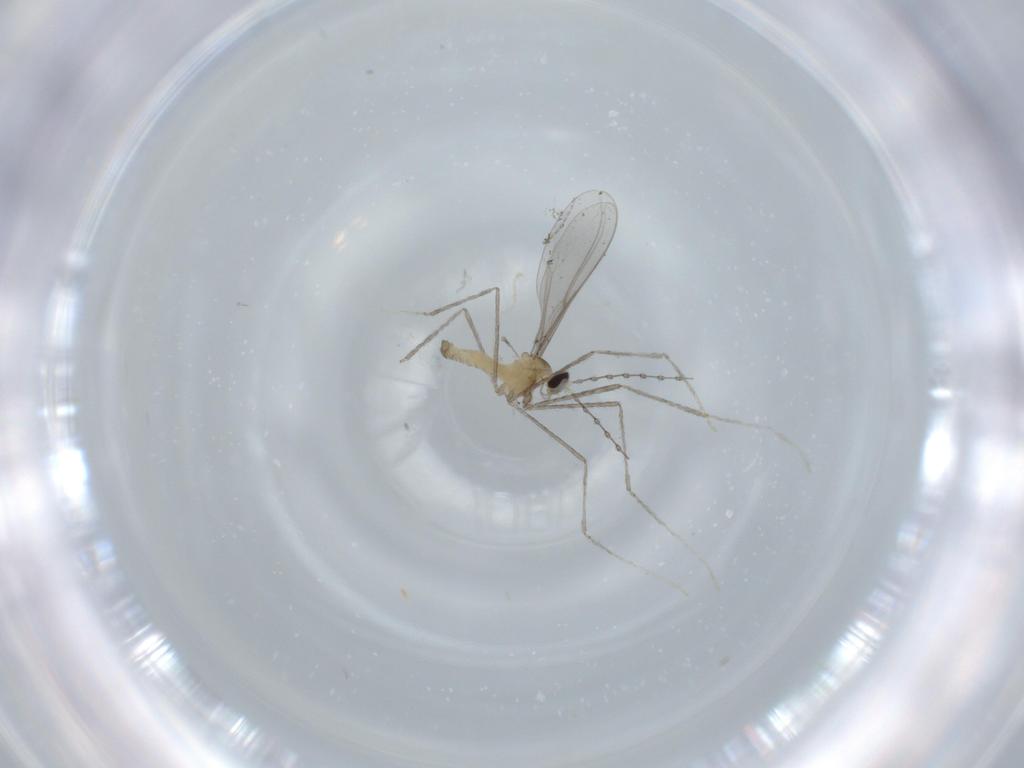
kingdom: Animalia
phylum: Arthropoda
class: Insecta
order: Diptera
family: Cecidomyiidae
